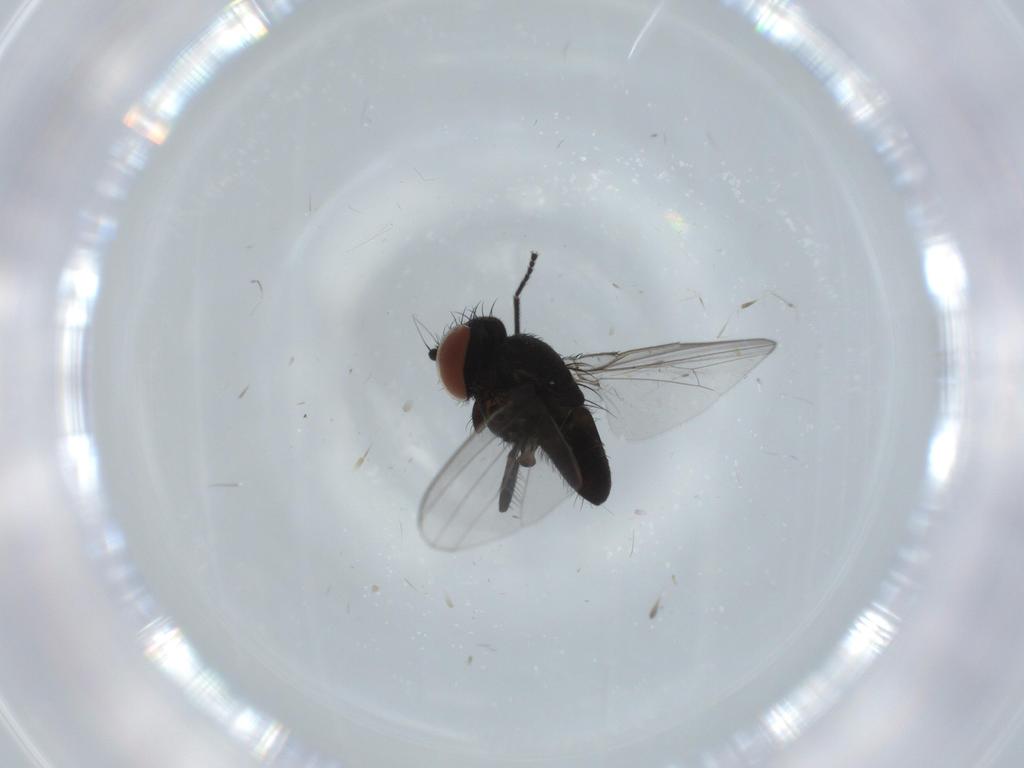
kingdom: Animalia
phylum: Arthropoda
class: Insecta
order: Diptera
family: Milichiidae
